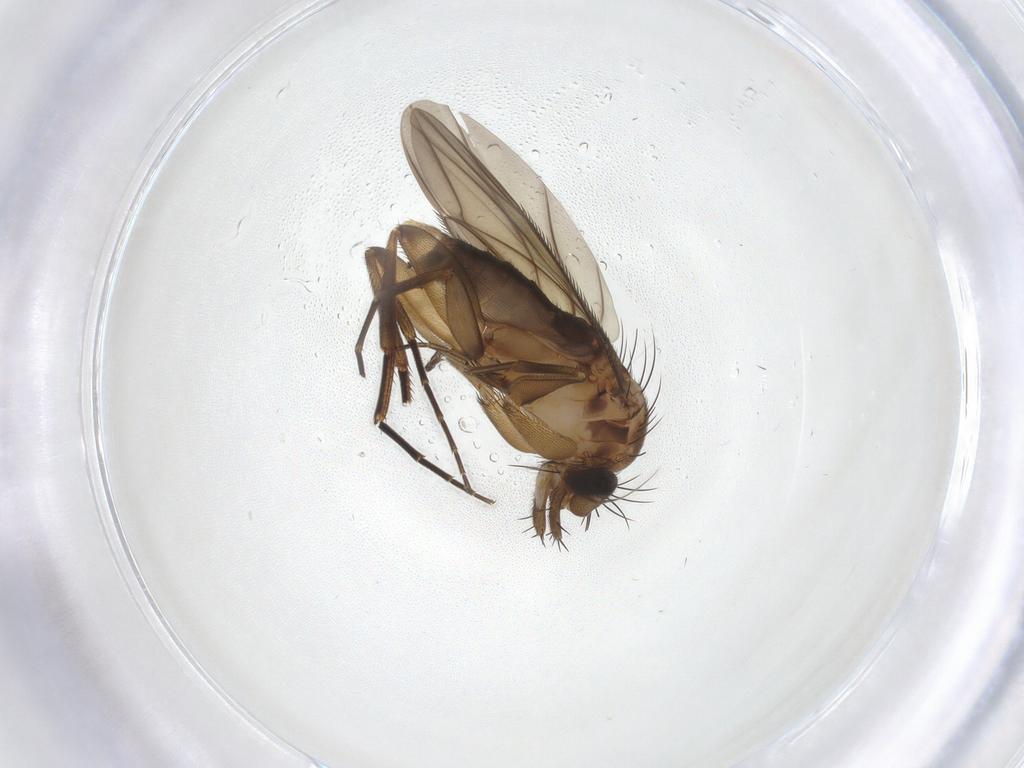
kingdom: Animalia
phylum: Arthropoda
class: Insecta
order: Diptera
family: Phoridae
